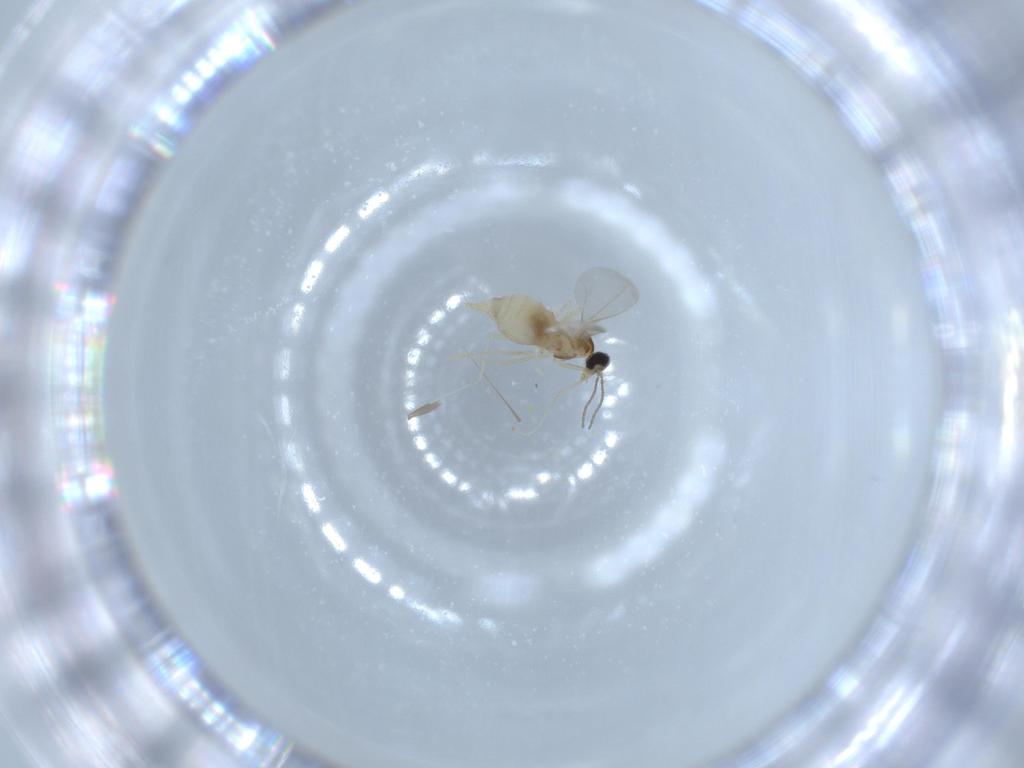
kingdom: Animalia
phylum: Arthropoda
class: Insecta
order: Diptera
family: Cecidomyiidae
